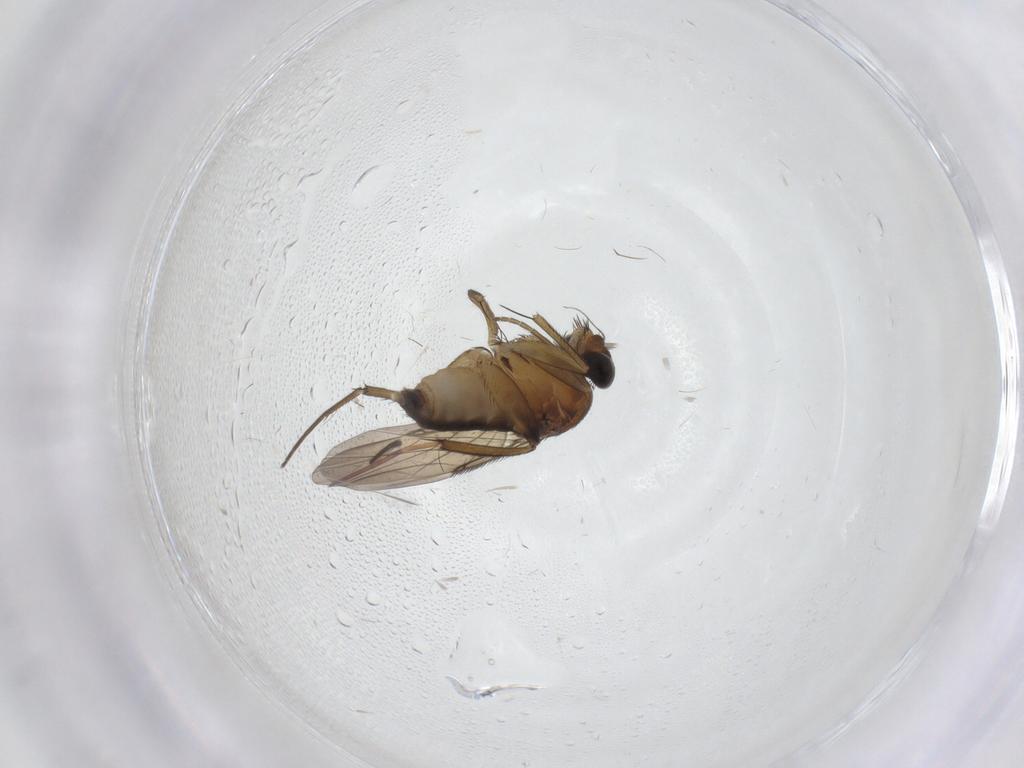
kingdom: Animalia
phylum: Arthropoda
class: Insecta
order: Diptera
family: Phoridae
